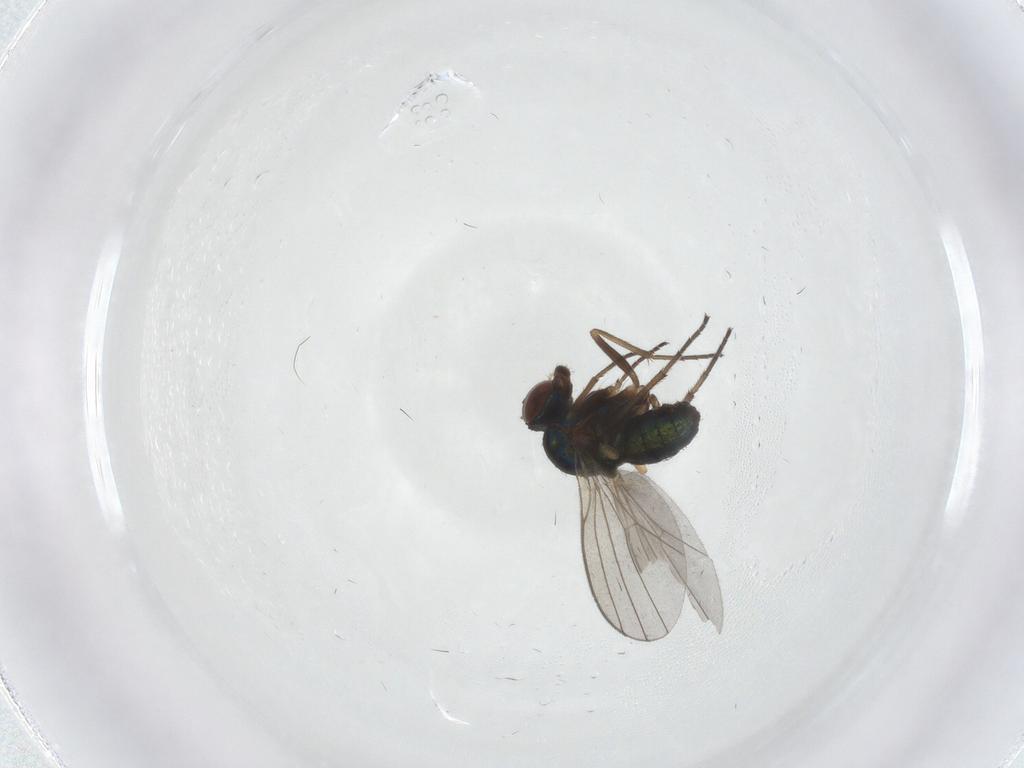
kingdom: Animalia
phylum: Arthropoda
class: Insecta
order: Diptera
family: Dolichopodidae
